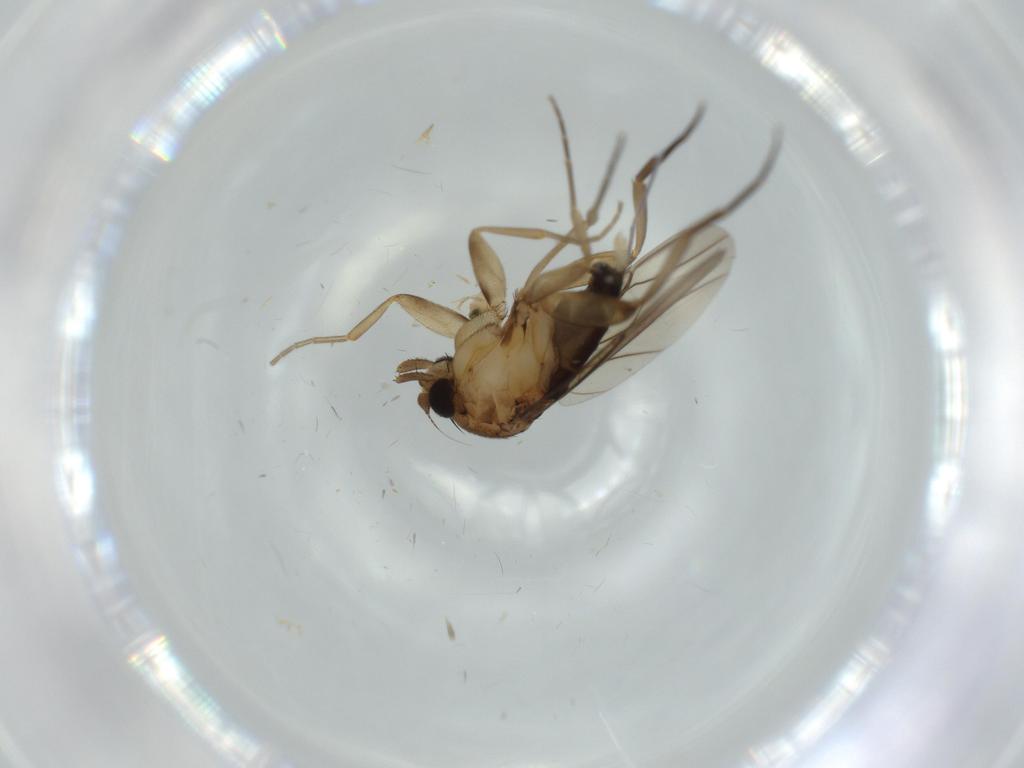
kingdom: Animalia
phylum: Arthropoda
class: Insecta
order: Diptera
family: Phoridae
